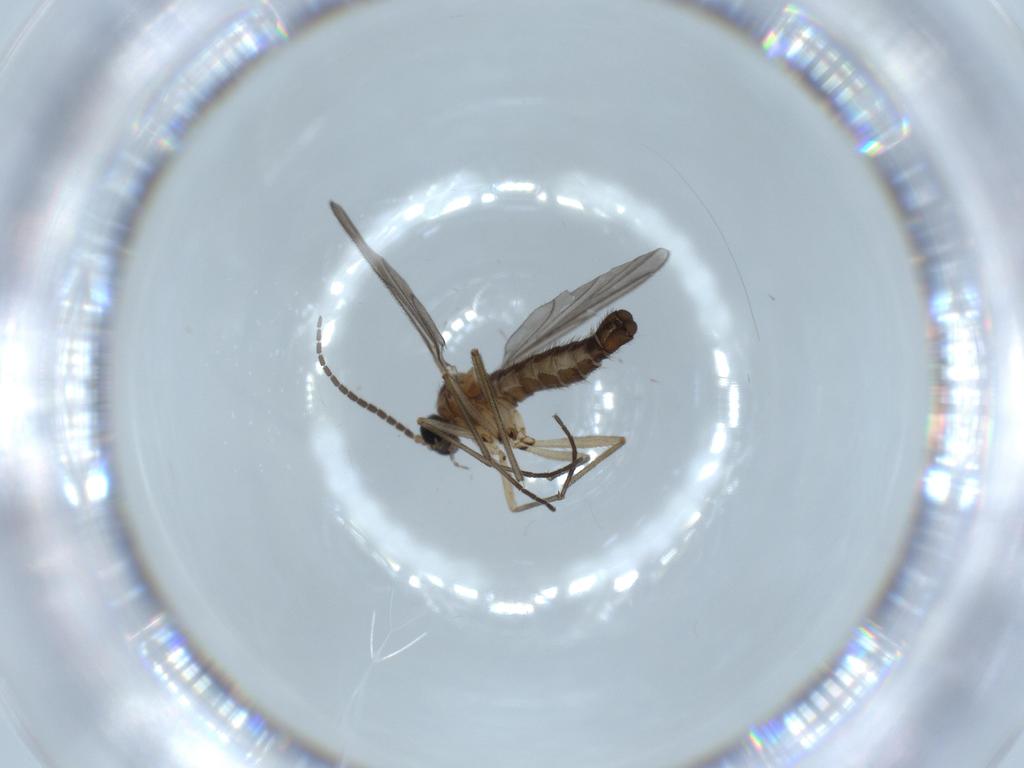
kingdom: Animalia
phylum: Arthropoda
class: Insecta
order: Diptera
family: Sciaridae
